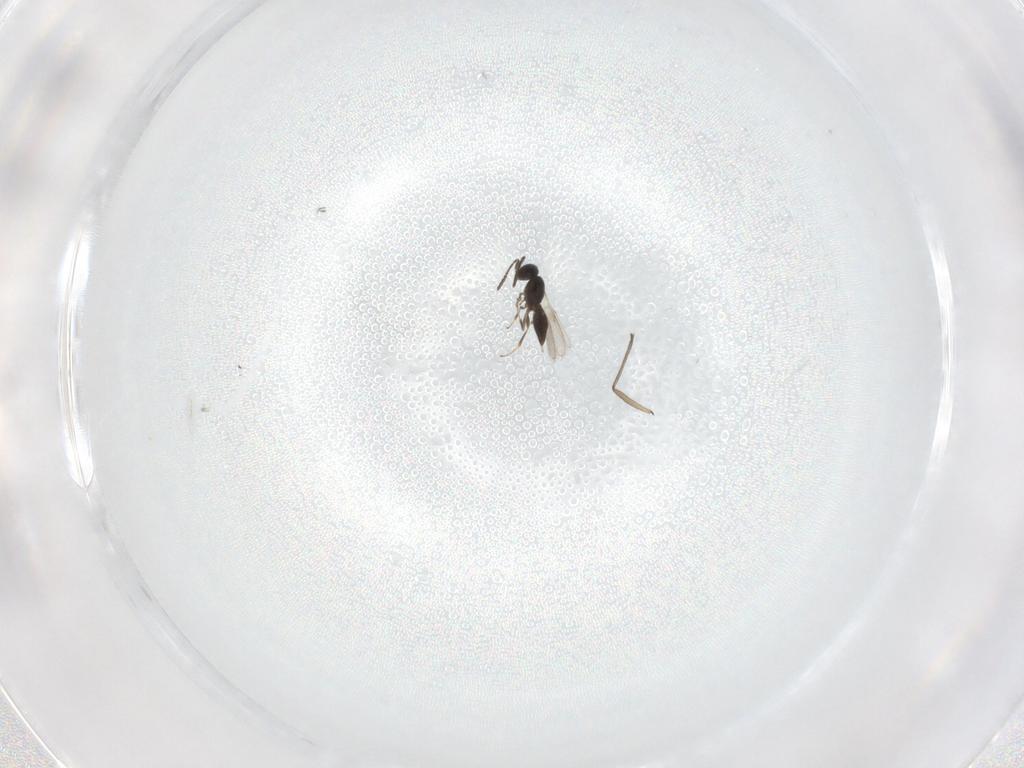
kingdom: Animalia
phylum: Arthropoda
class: Insecta
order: Hymenoptera
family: Scelionidae
